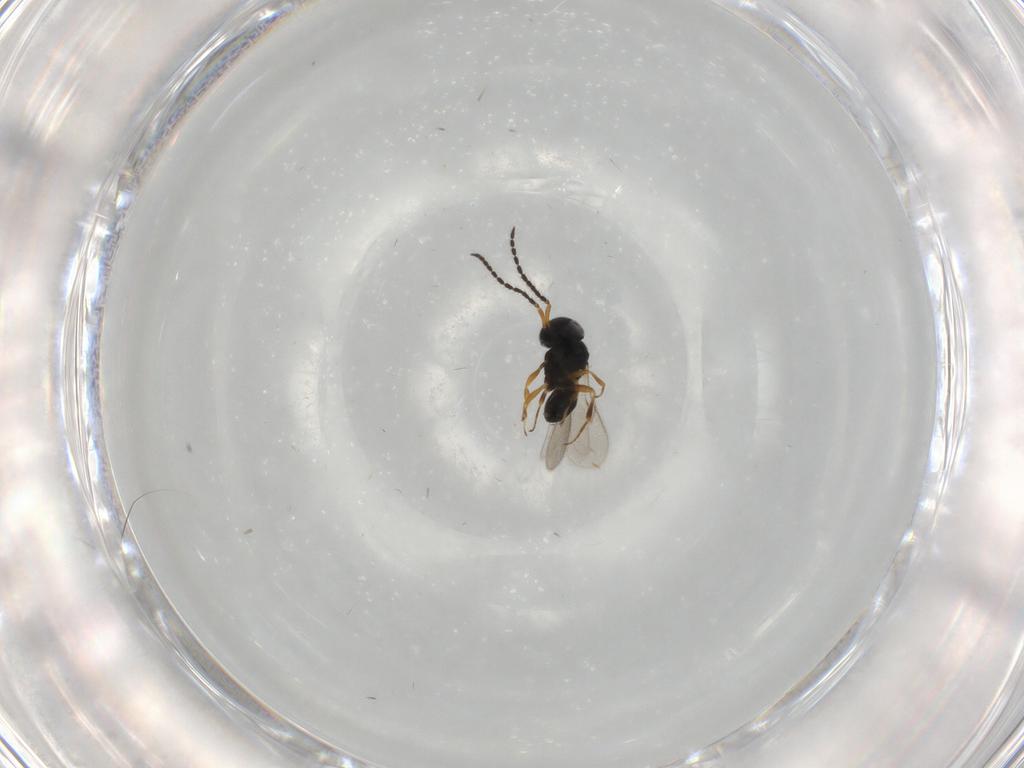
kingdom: Animalia
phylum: Arthropoda
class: Insecta
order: Hymenoptera
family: Scelionidae
